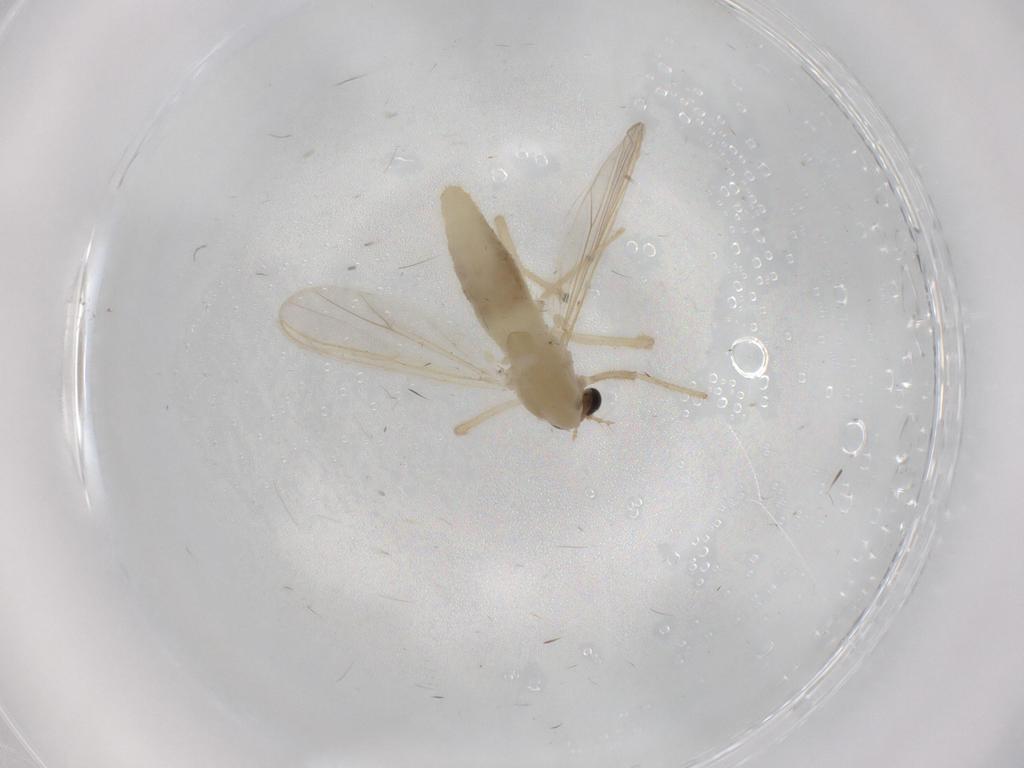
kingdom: Animalia
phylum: Arthropoda
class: Insecta
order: Diptera
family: Chironomidae
